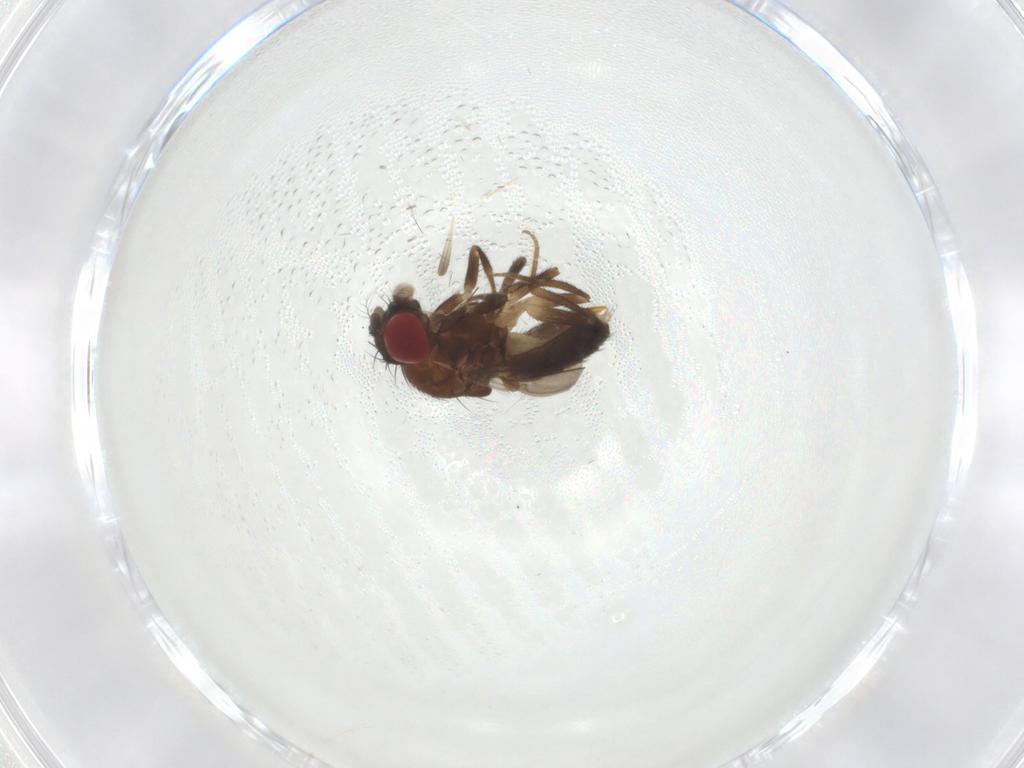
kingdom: Animalia
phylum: Arthropoda
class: Insecta
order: Diptera
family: Drosophilidae
